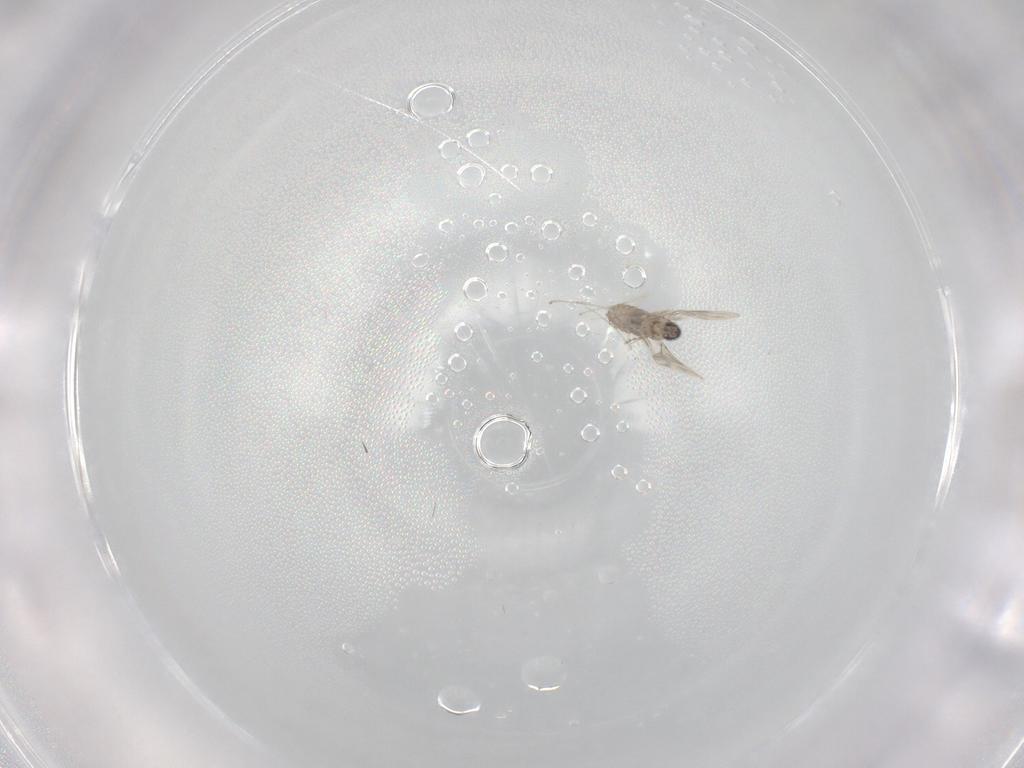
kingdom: Animalia
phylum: Arthropoda
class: Insecta
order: Diptera
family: Cecidomyiidae
